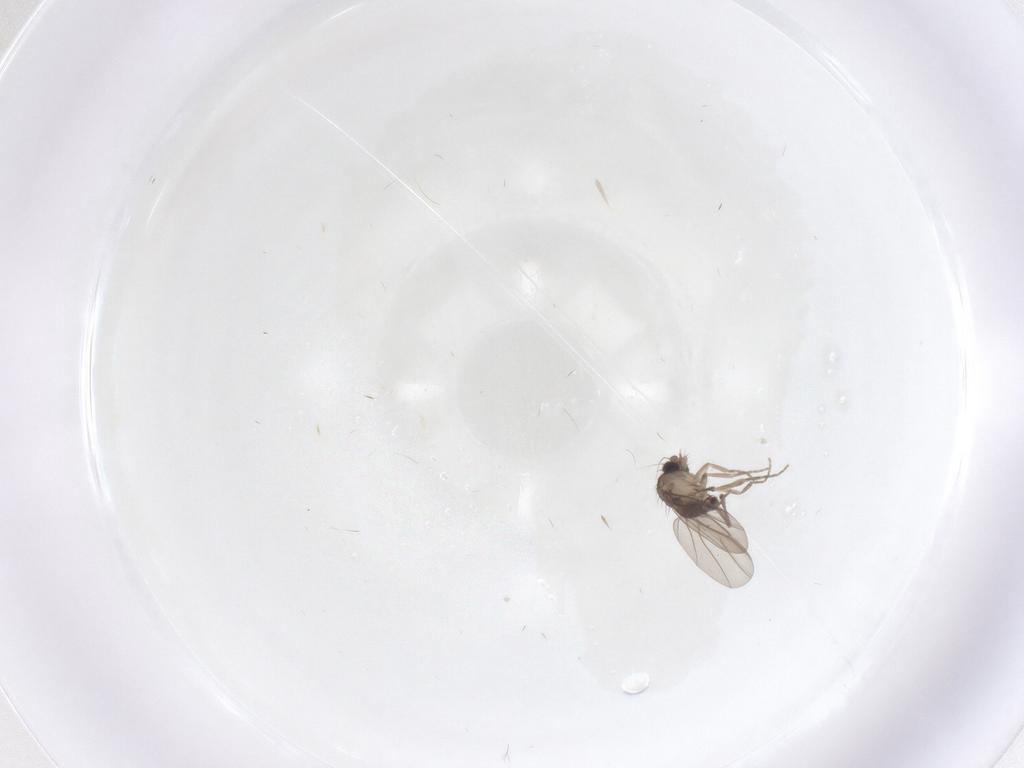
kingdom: Animalia
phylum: Arthropoda
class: Insecta
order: Diptera
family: Phoridae
